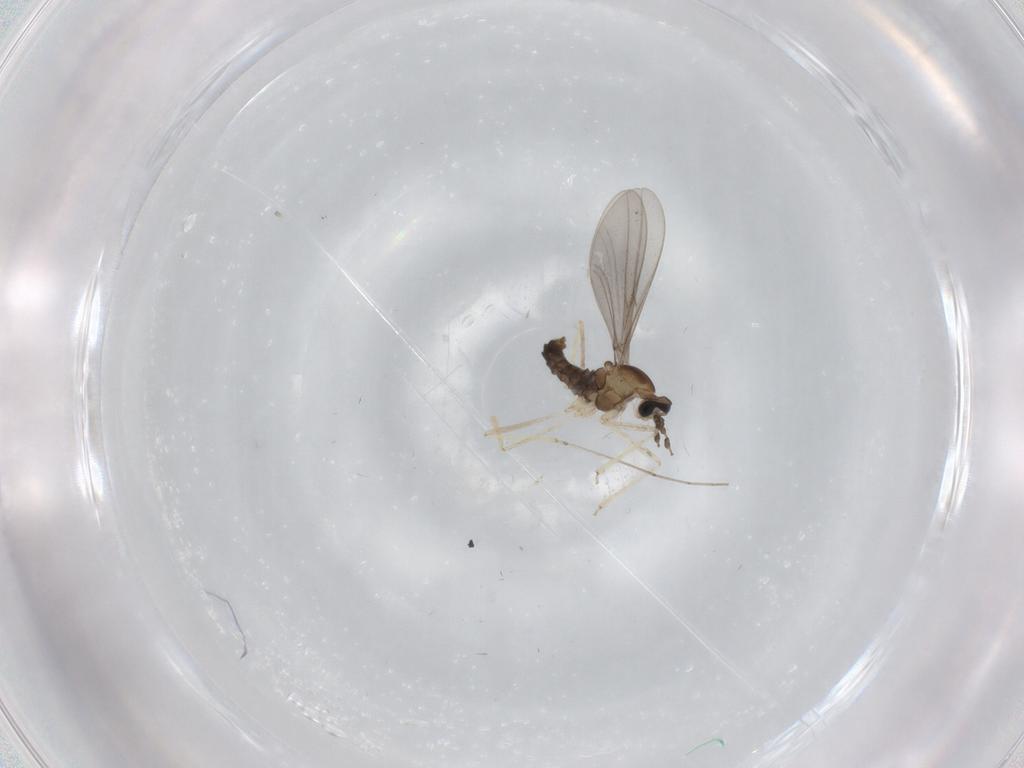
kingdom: Animalia
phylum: Arthropoda
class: Insecta
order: Diptera
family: Cecidomyiidae
